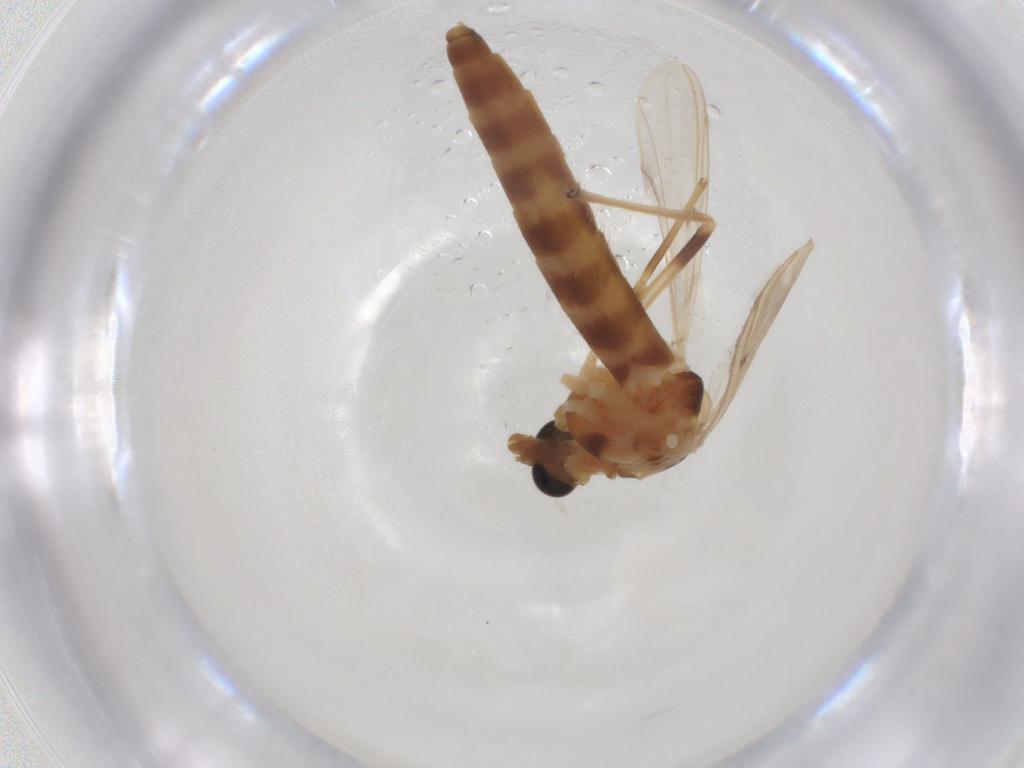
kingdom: Animalia
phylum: Arthropoda
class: Insecta
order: Diptera
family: Chironomidae
